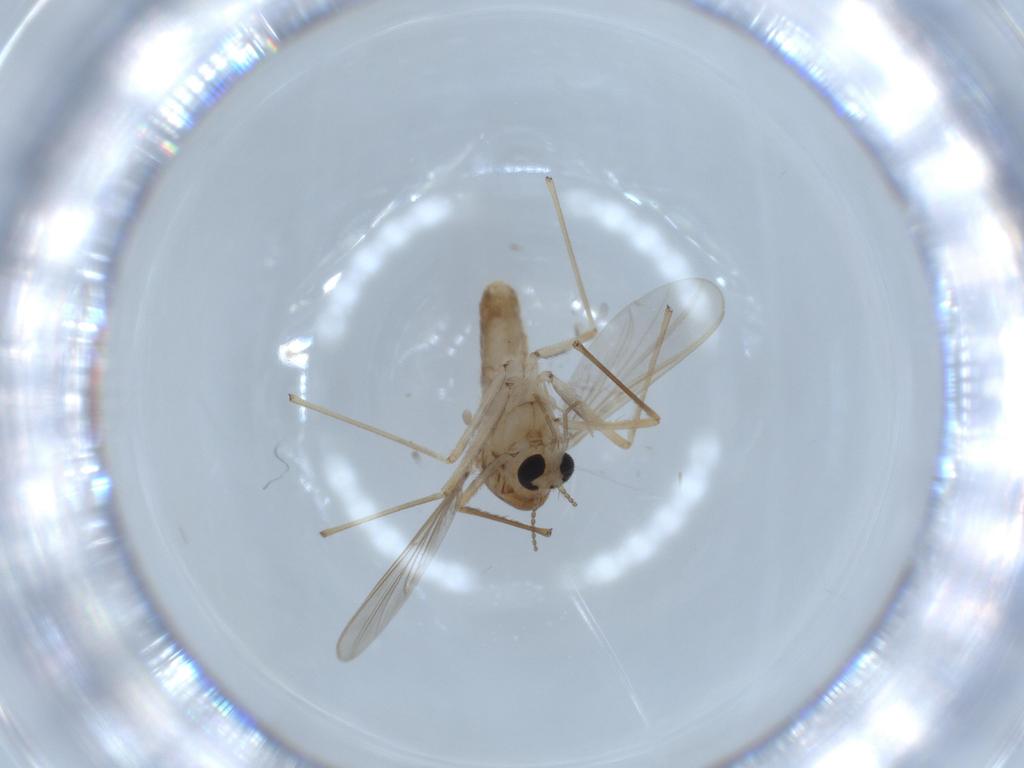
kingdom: Animalia
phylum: Arthropoda
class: Insecta
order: Diptera
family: Chironomidae
